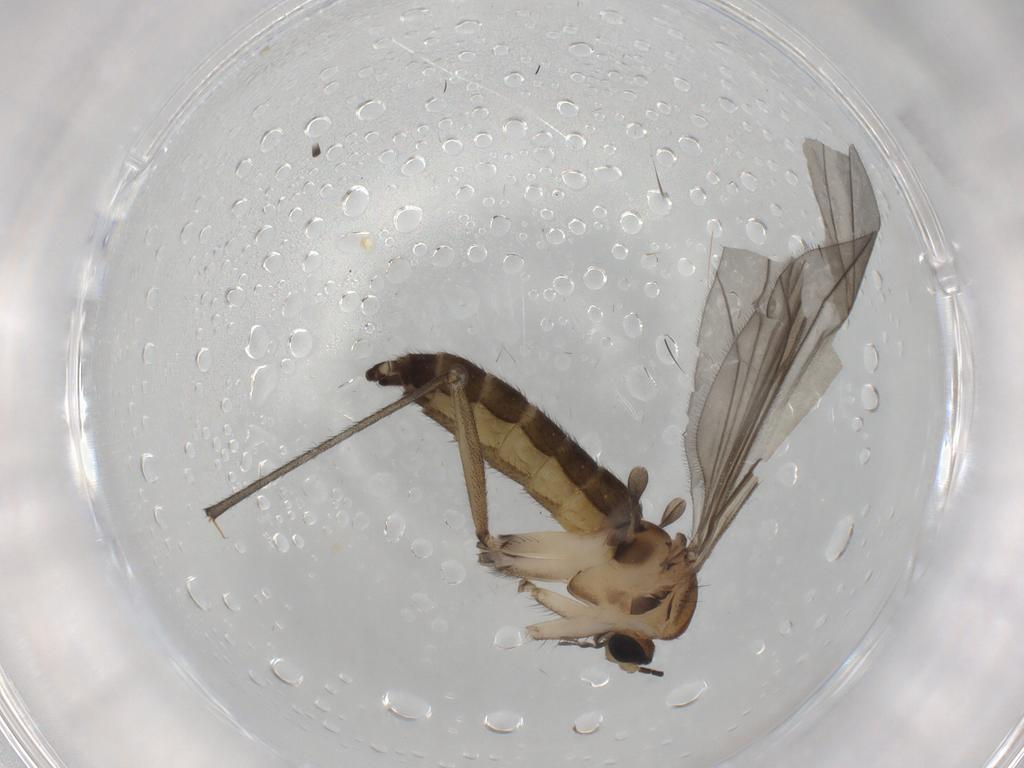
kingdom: Animalia
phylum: Arthropoda
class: Insecta
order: Diptera
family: Sciaridae
